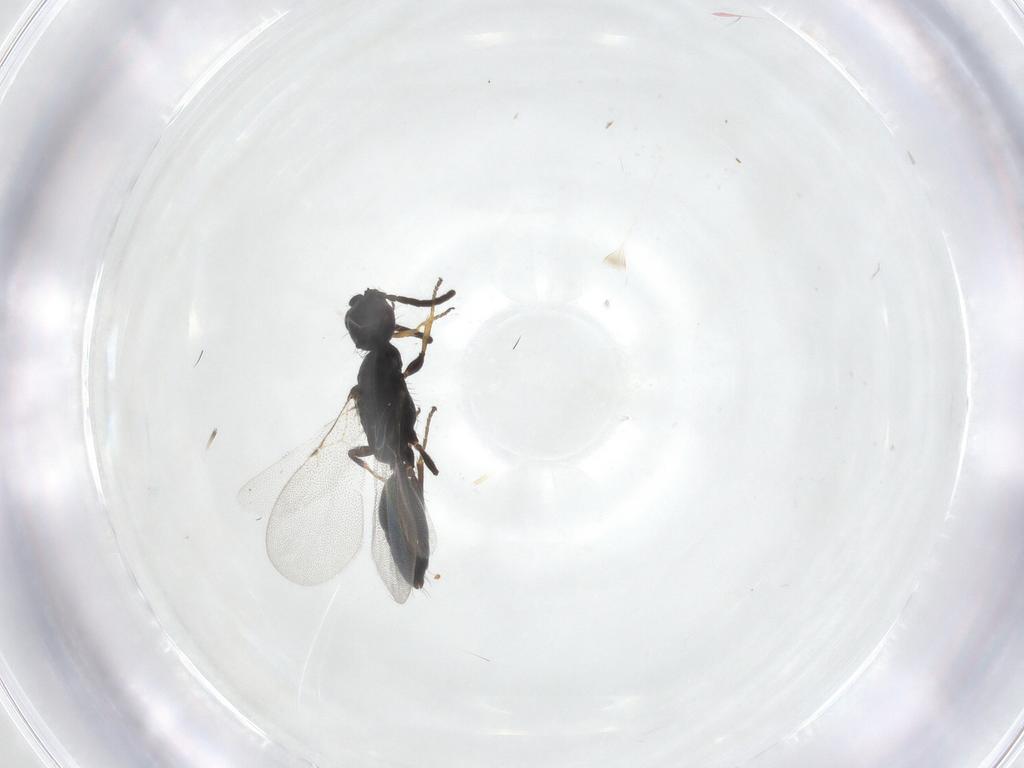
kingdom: Animalia
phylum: Arthropoda
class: Insecta
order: Hymenoptera
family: Bethylidae
